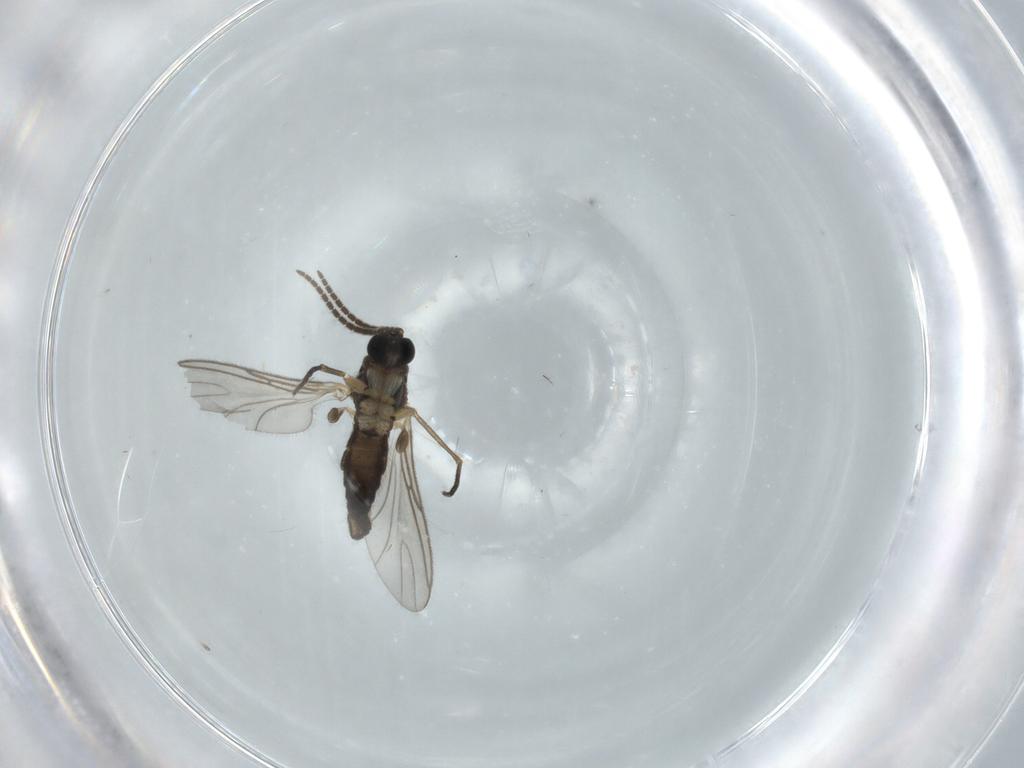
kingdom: Animalia
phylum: Arthropoda
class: Insecta
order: Diptera
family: Sciaridae
